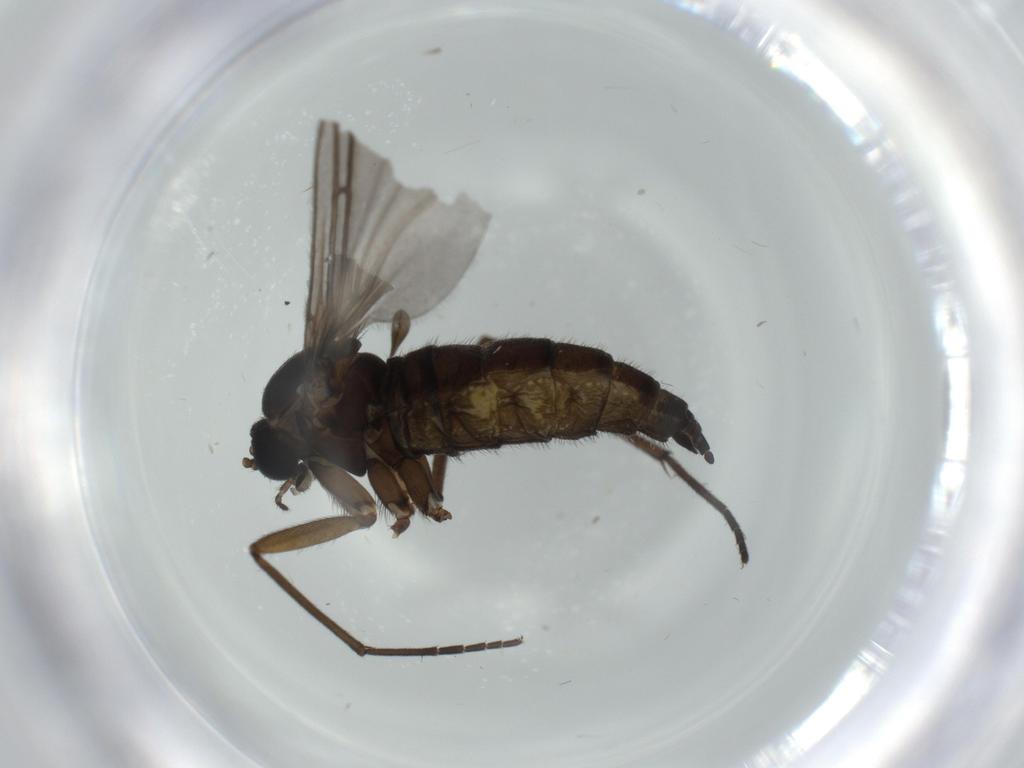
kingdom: Animalia
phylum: Arthropoda
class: Insecta
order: Diptera
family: Sciaridae
